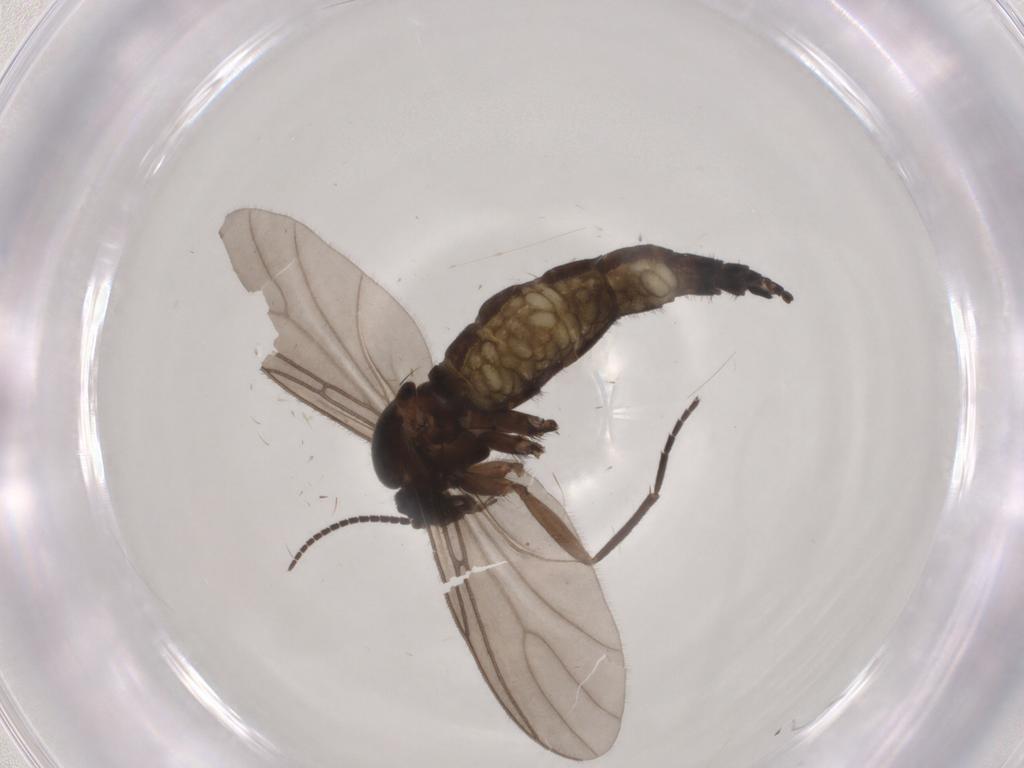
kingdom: Animalia
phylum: Arthropoda
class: Insecta
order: Diptera
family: Sciaridae
